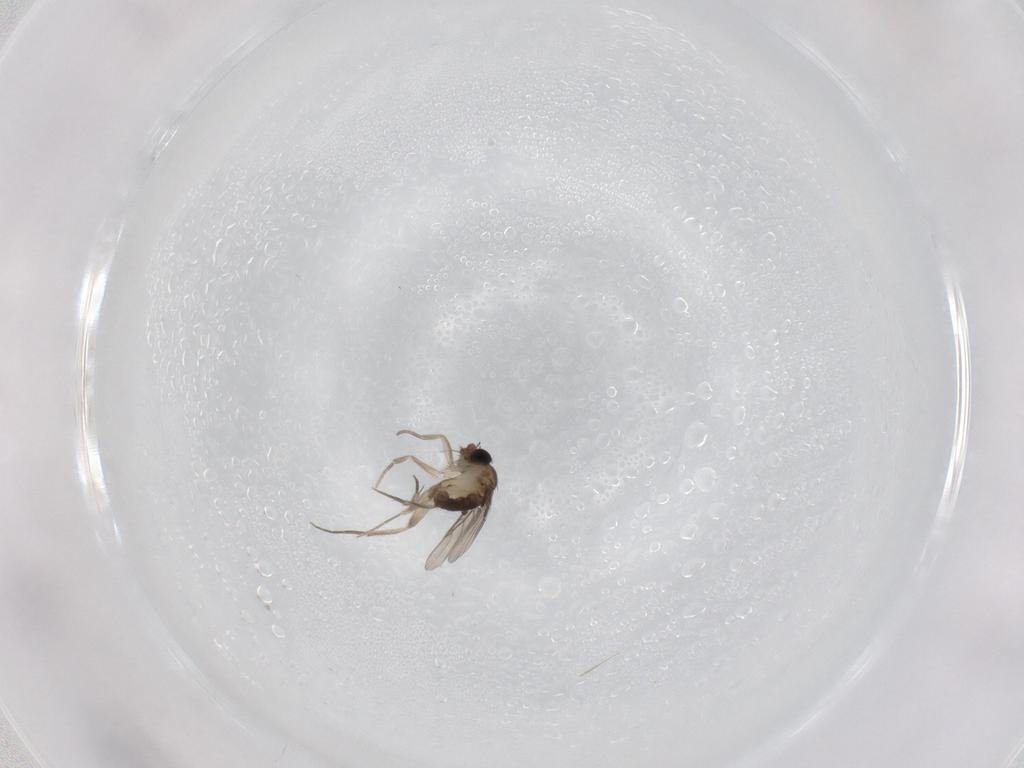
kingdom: Animalia
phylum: Arthropoda
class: Insecta
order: Diptera
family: Phoridae
